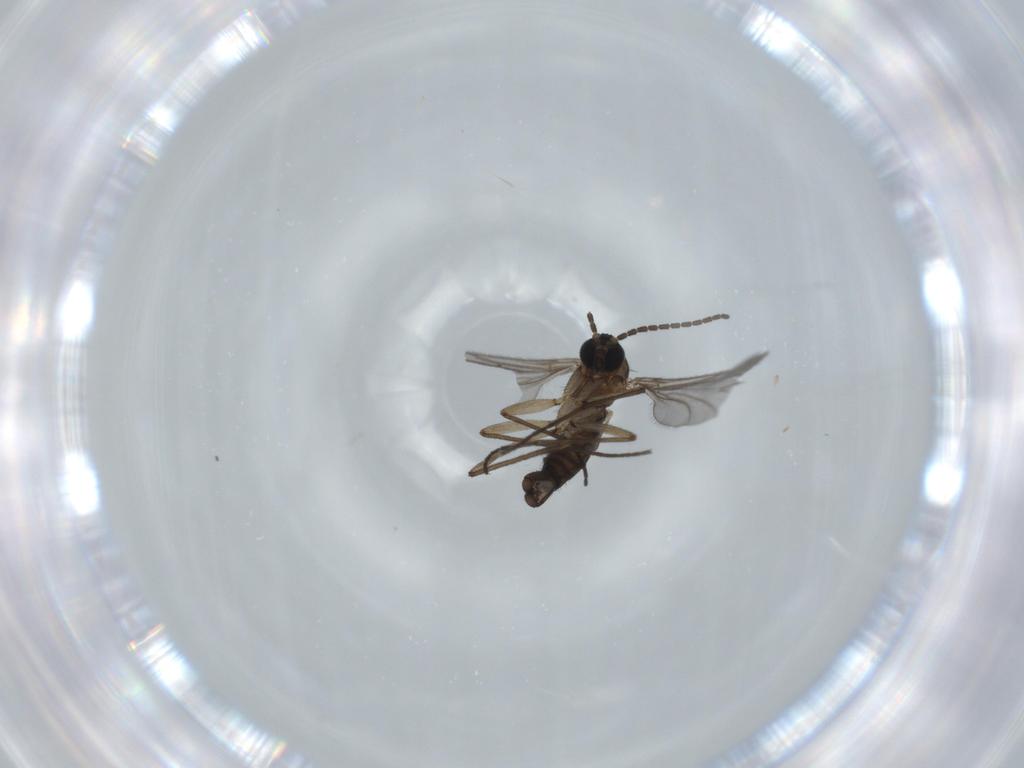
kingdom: Animalia
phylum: Arthropoda
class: Insecta
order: Diptera
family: Sciaridae
